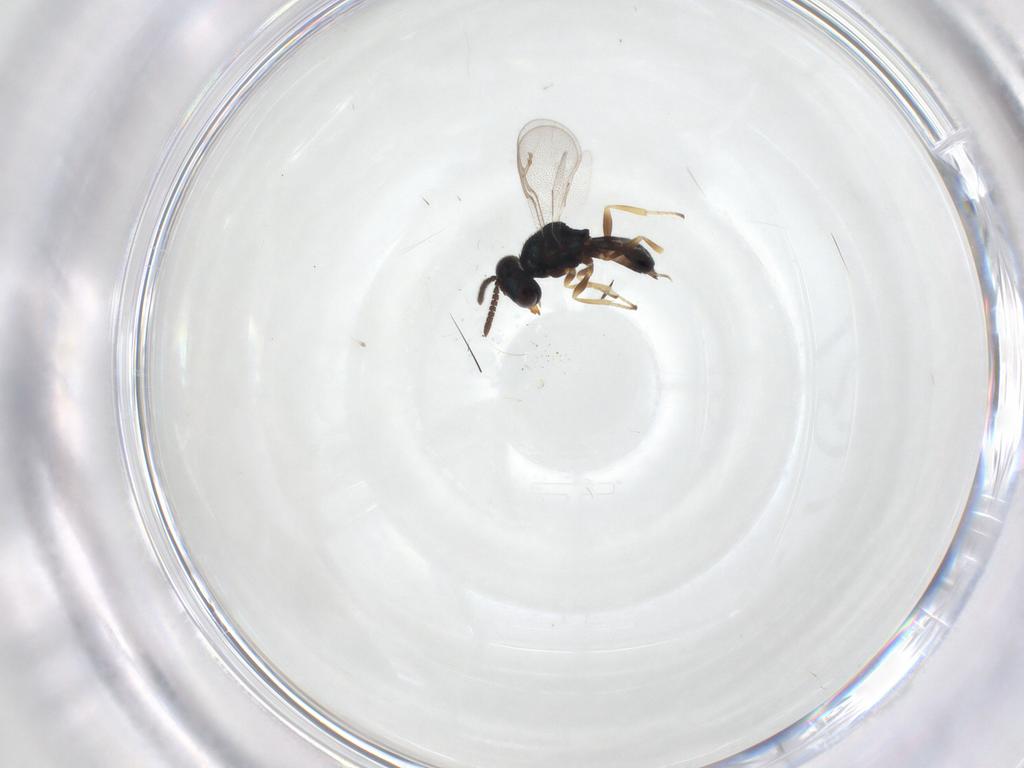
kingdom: Animalia
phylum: Arthropoda
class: Insecta
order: Hymenoptera
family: Pteromalidae
